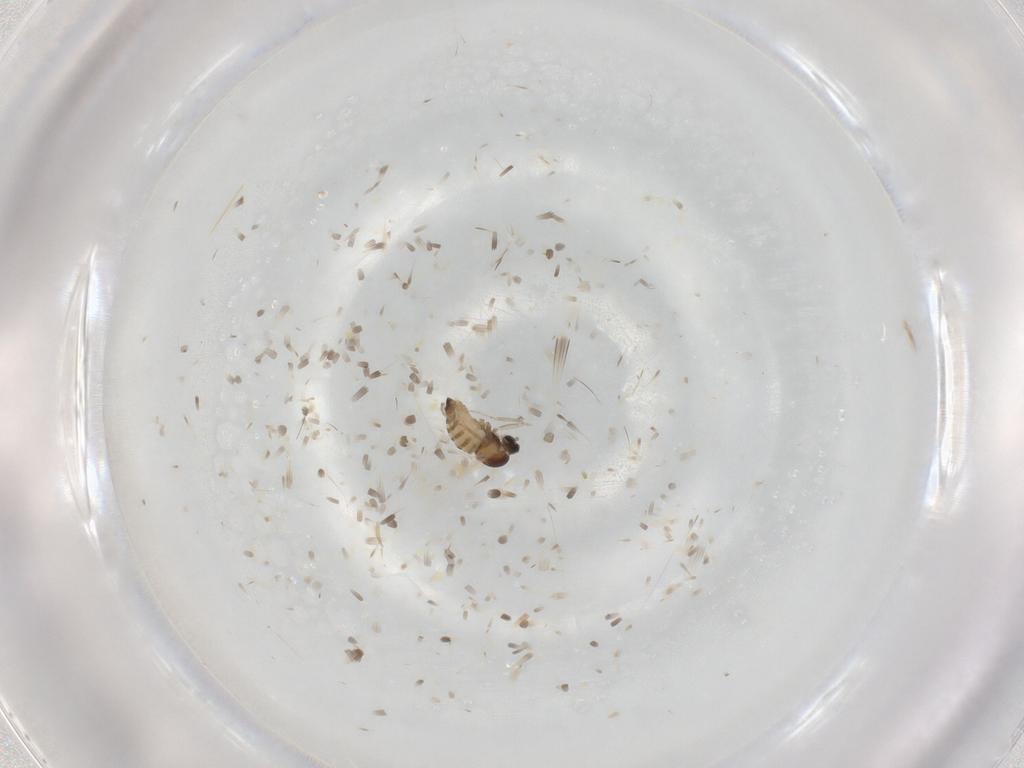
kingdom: Animalia
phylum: Arthropoda
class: Insecta
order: Diptera
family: Cecidomyiidae
